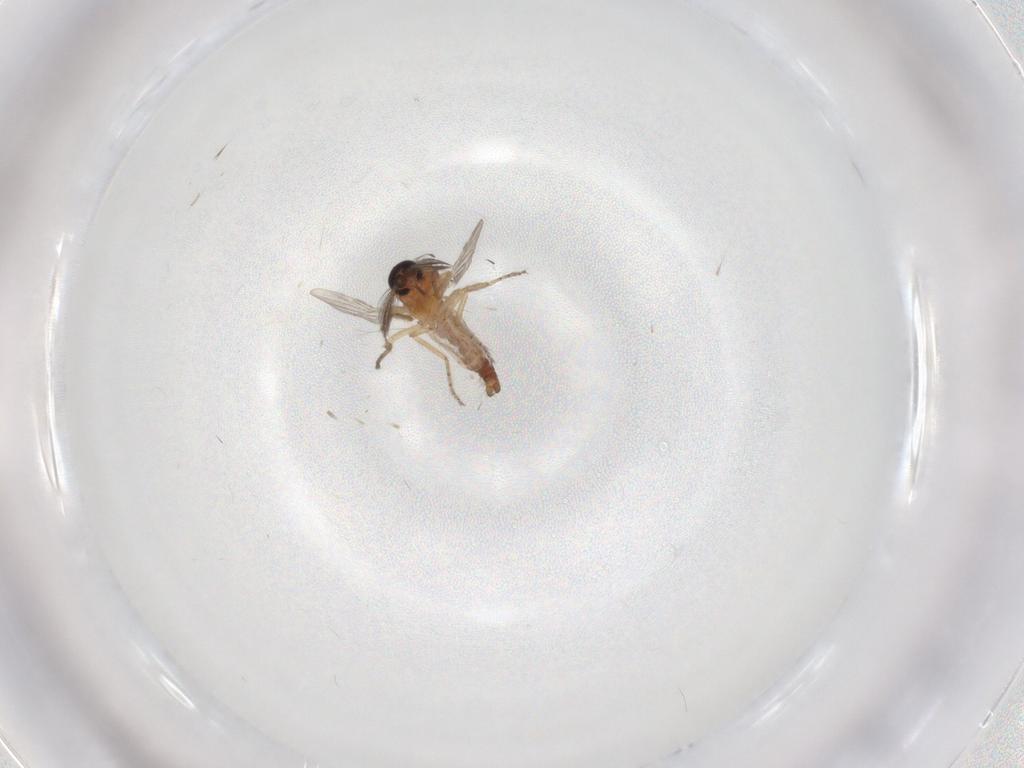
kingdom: Animalia
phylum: Arthropoda
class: Insecta
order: Diptera
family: Ceratopogonidae
